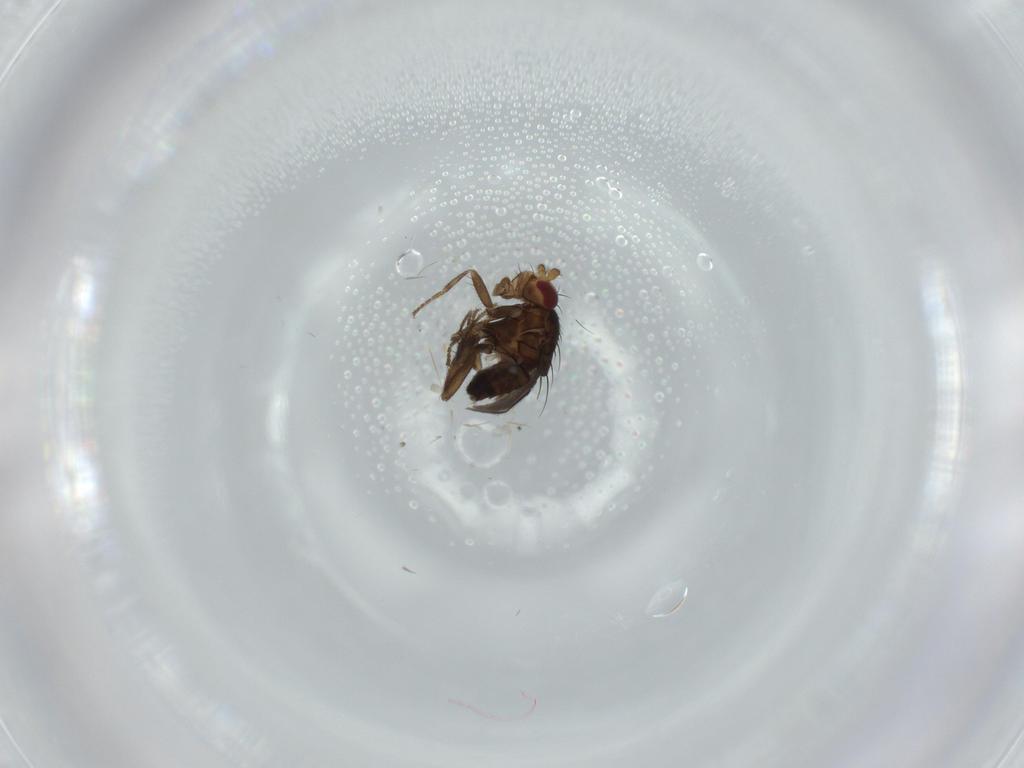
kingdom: Animalia
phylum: Arthropoda
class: Insecta
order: Diptera
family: Sphaeroceridae
